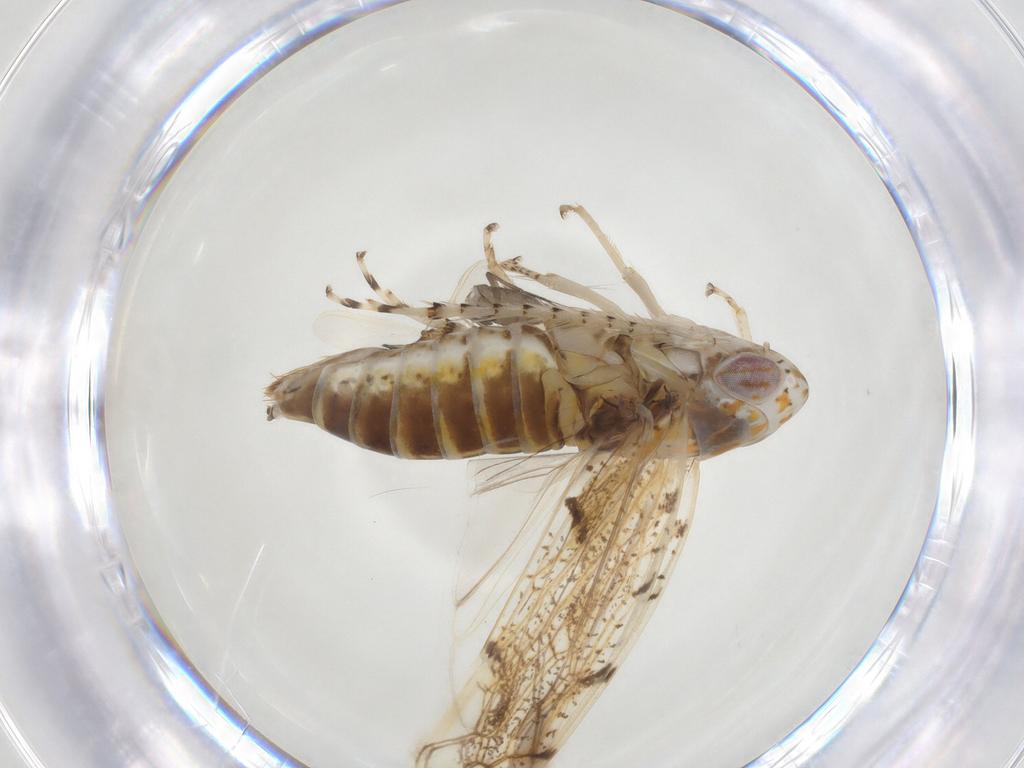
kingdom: Animalia
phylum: Arthropoda
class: Insecta
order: Hemiptera
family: Cicadellidae
